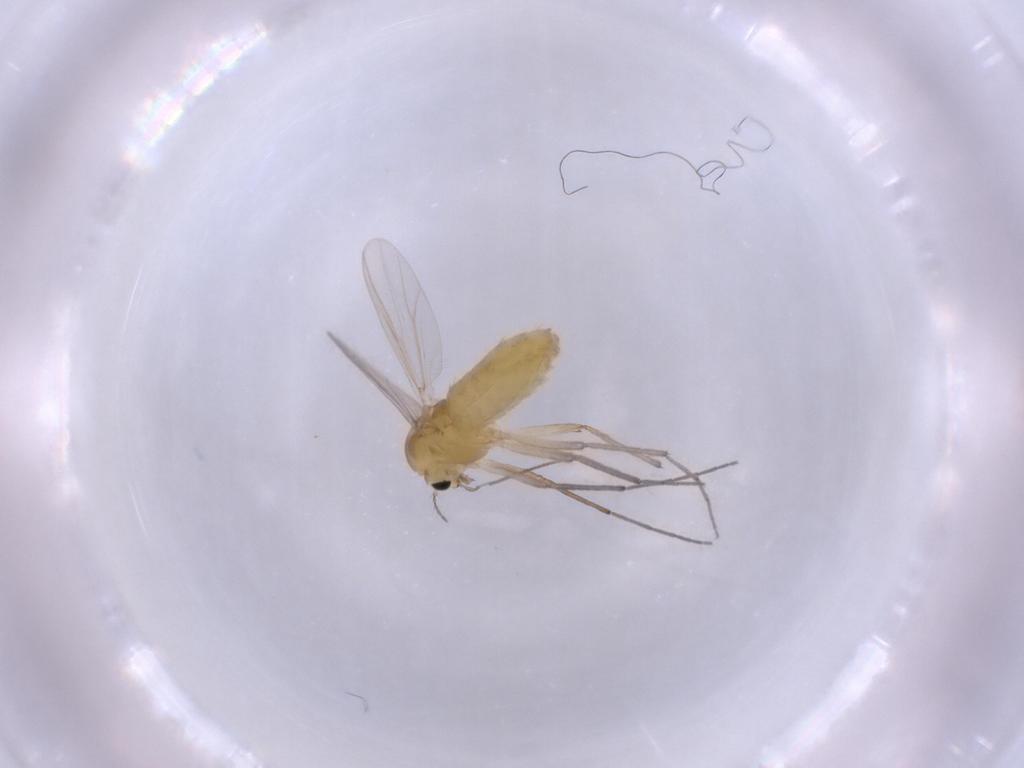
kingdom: Animalia
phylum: Arthropoda
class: Insecta
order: Diptera
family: Chironomidae
